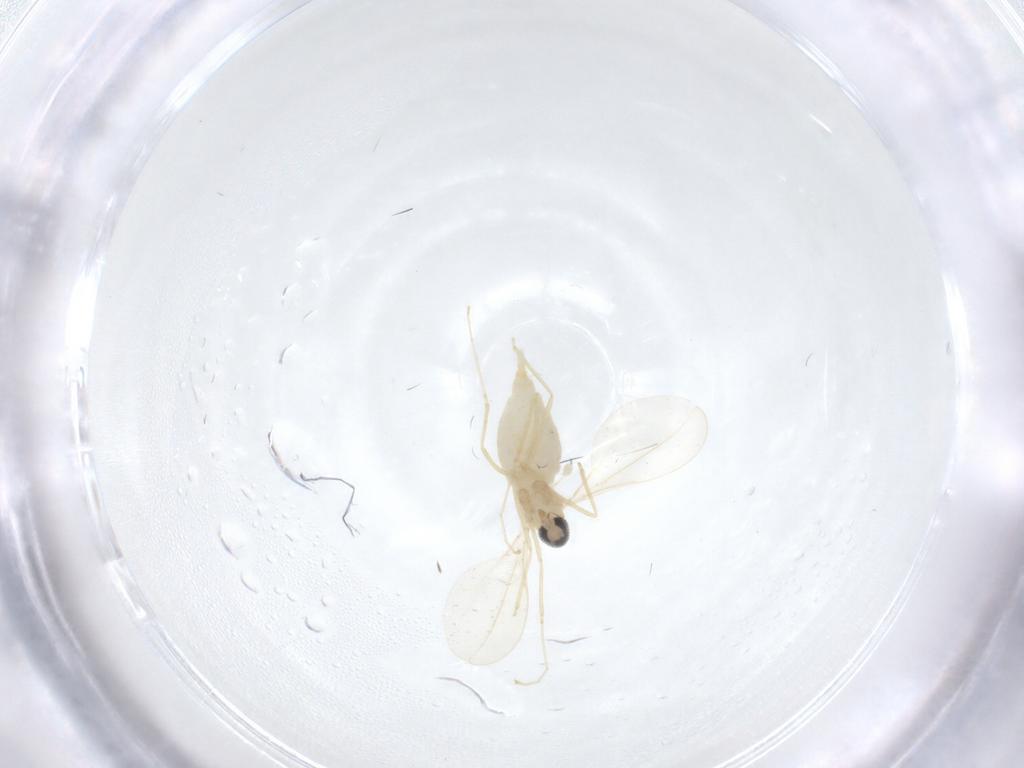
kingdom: Animalia
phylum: Arthropoda
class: Insecta
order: Diptera
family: Cecidomyiidae
